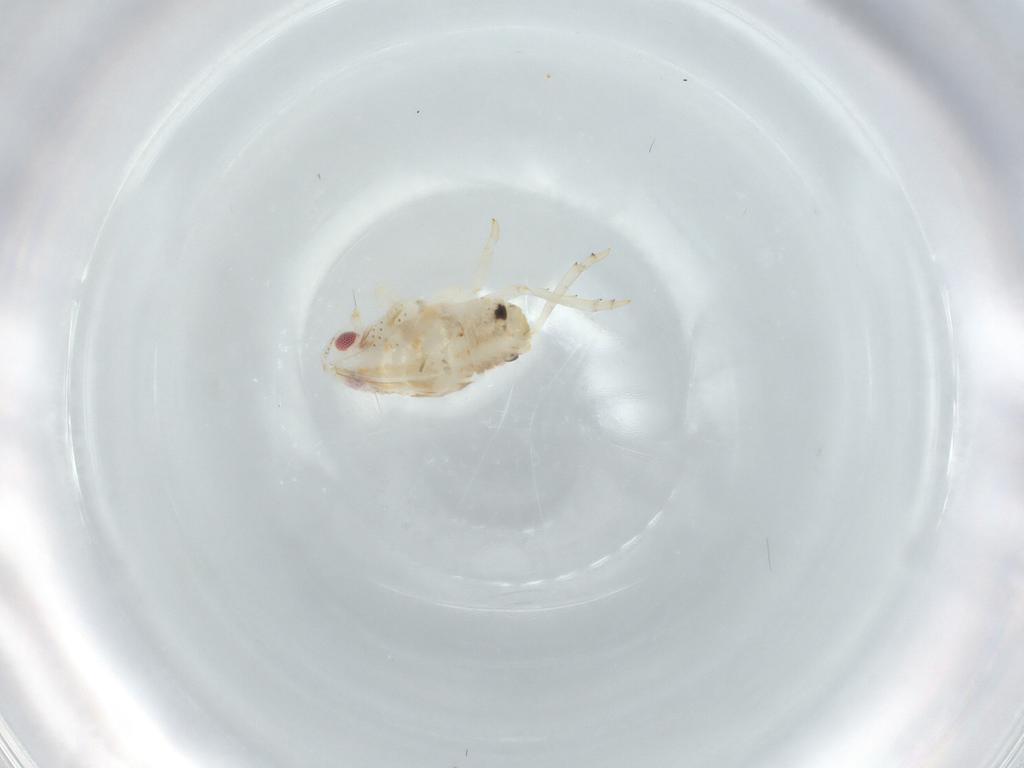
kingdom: Animalia
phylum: Arthropoda
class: Insecta
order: Hemiptera
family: Flatidae
